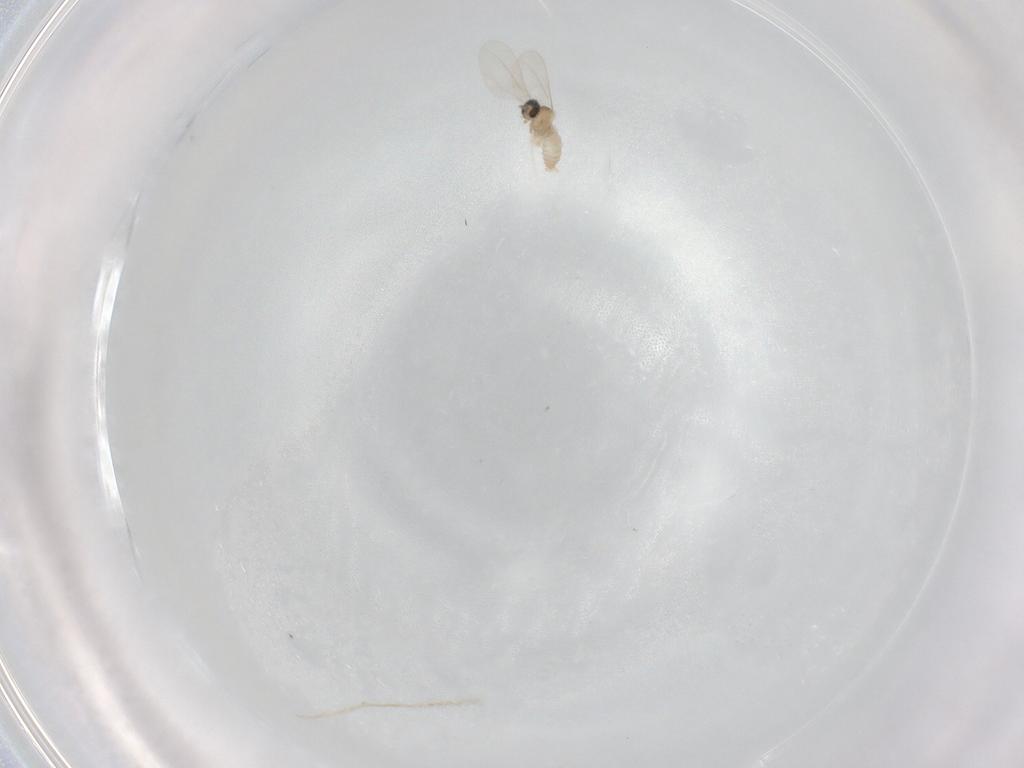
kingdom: Animalia
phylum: Arthropoda
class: Insecta
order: Diptera
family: Cecidomyiidae
